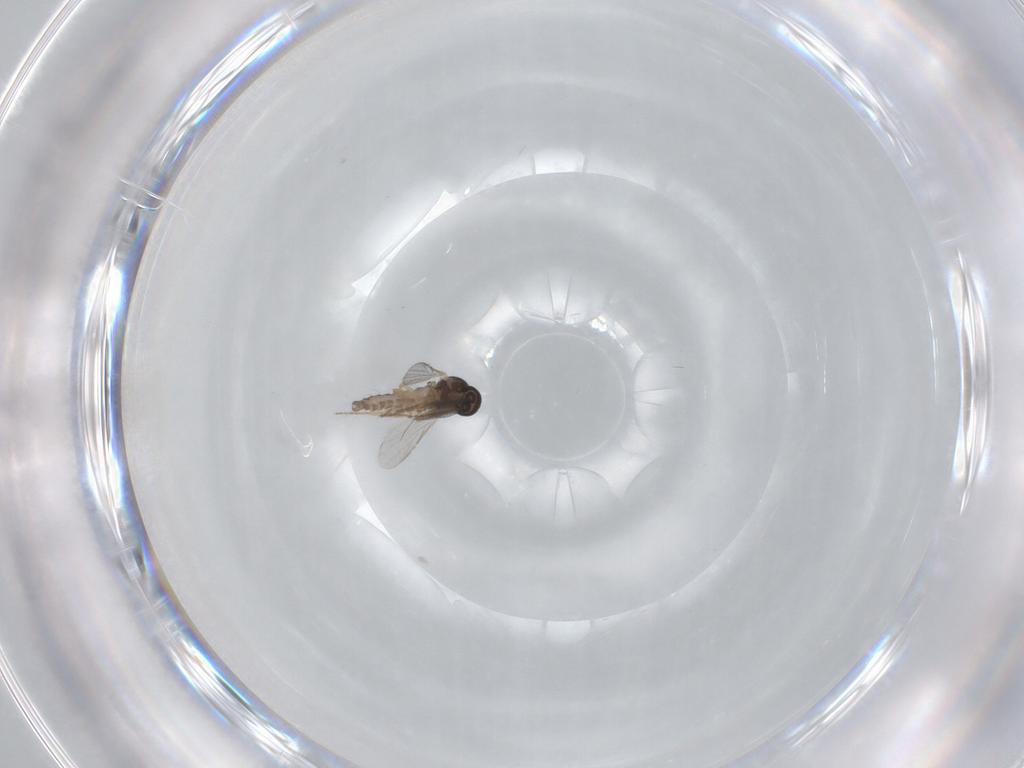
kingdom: Animalia
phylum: Arthropoda
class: Insecta
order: Diptera
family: Ceratopogonidae
